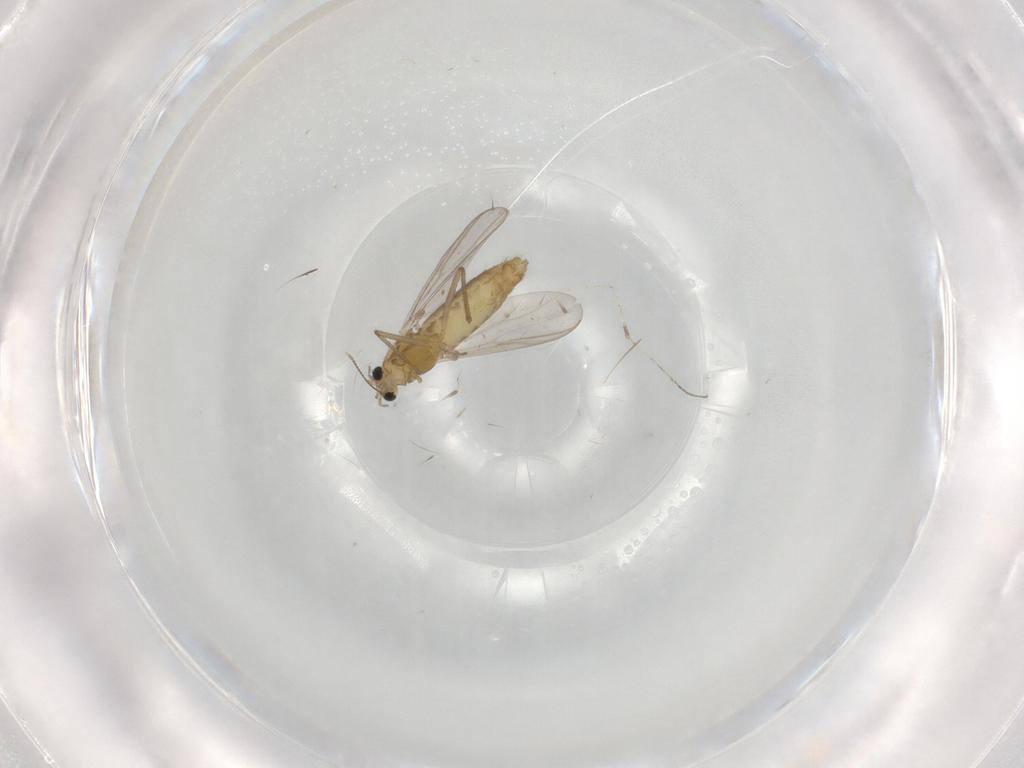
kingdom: Animalia
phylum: Arthropoda
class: Insecta
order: Diptera
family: Chironomidae
